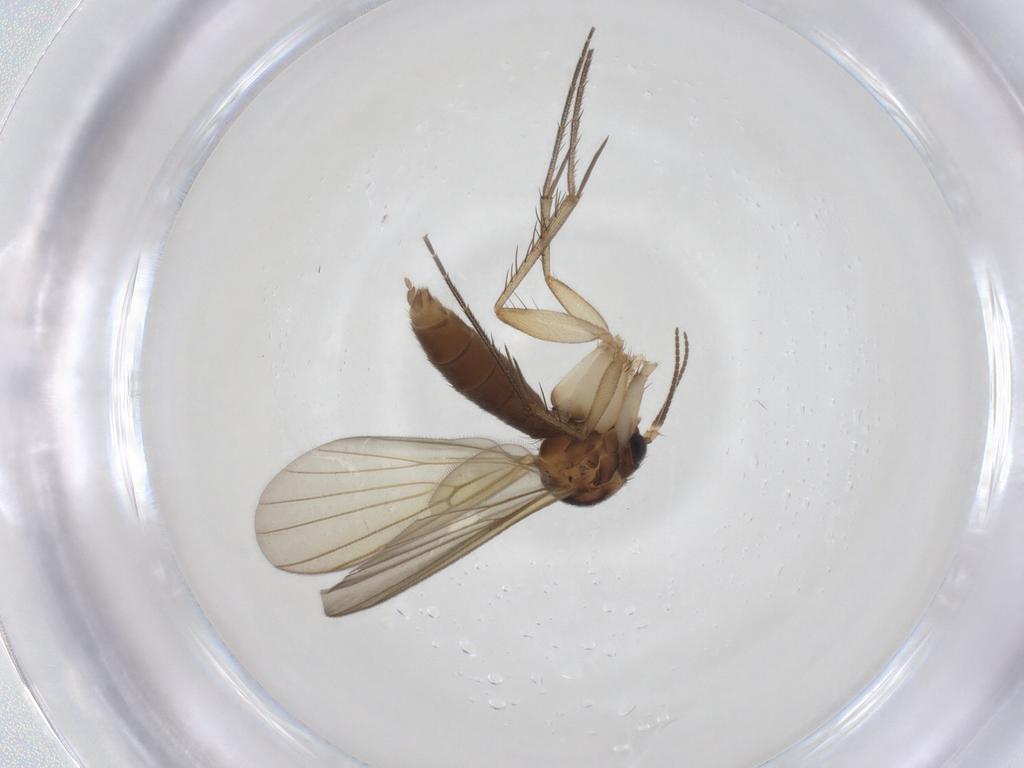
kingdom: Animalia
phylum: Arthropoda
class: Insecta
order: Diptera
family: Mycetophilidae
